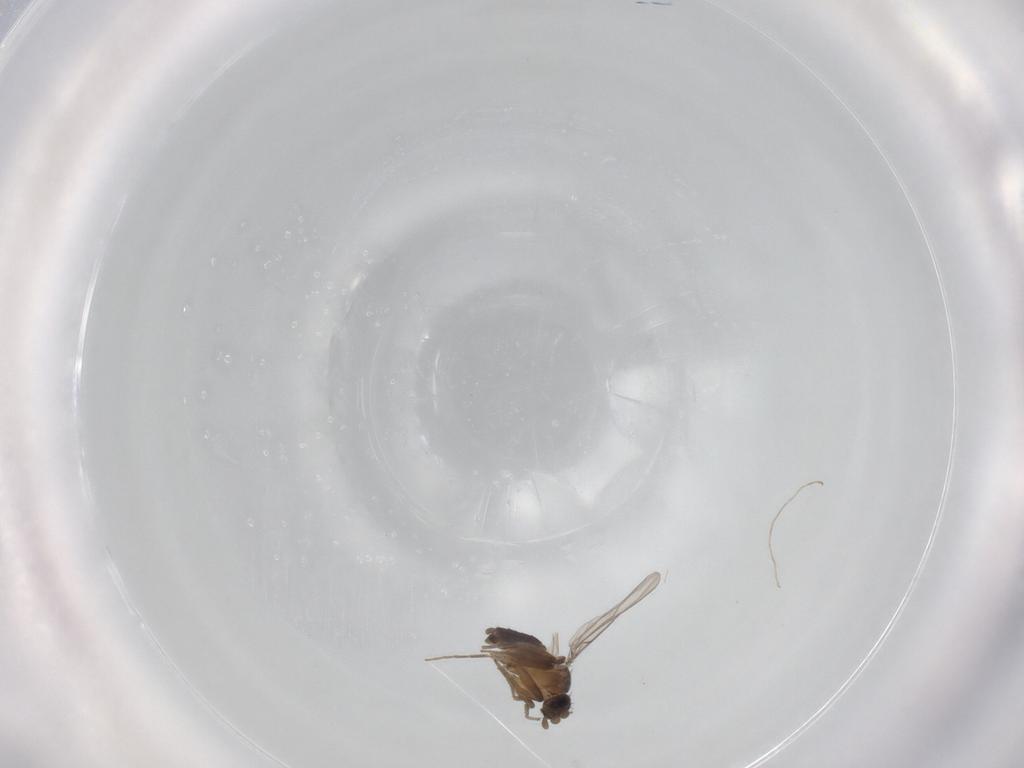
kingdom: Animalia
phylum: Arthropoda
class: Insecta
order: Diptera
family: Phoridae
